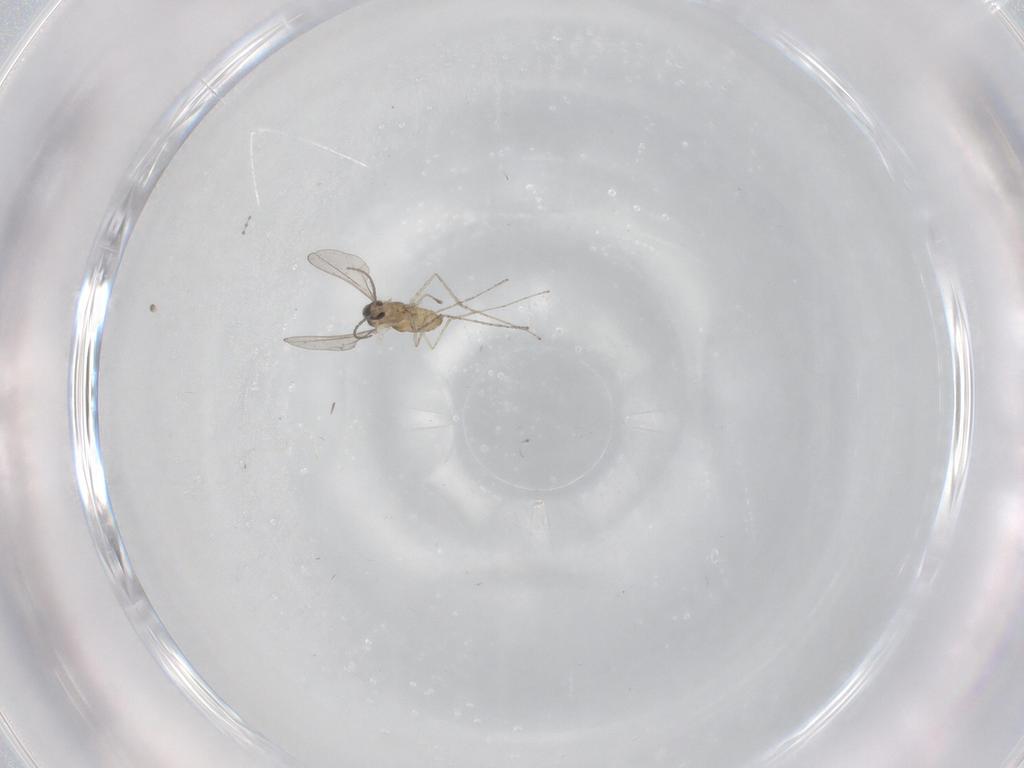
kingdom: Animalia
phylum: Arthropoda
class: Insecta
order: Diptera
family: Cecidomyiidae
